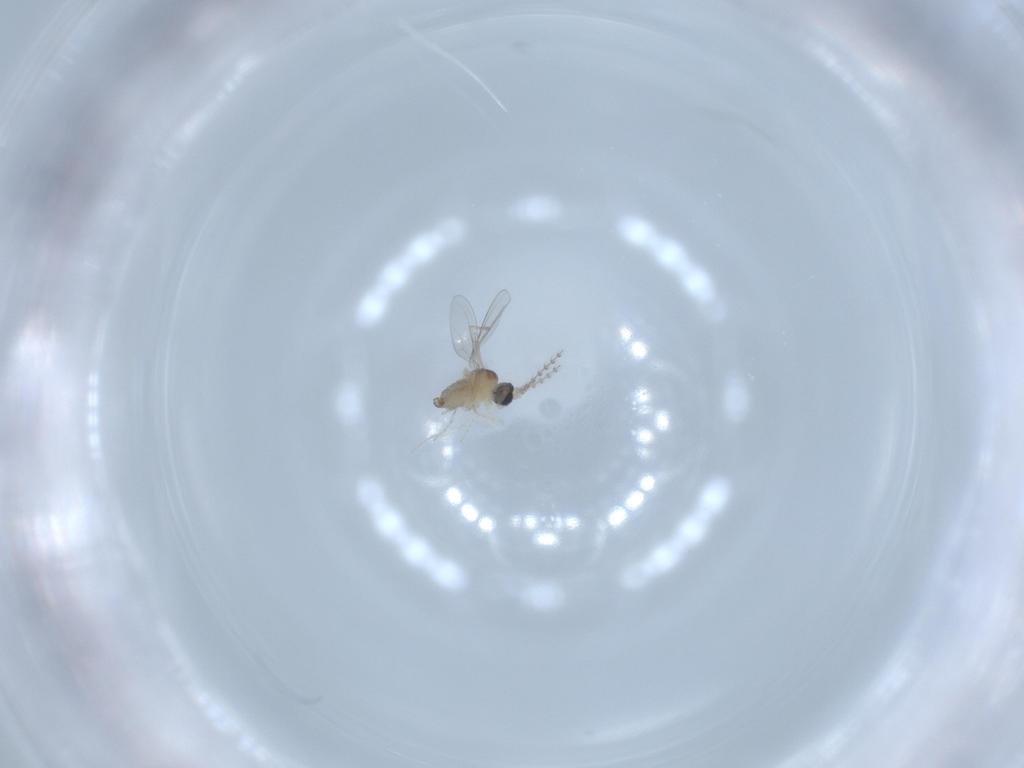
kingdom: Animalia
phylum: Arthropoda
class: Insecta
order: Diptera
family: Cecidomyiidae
